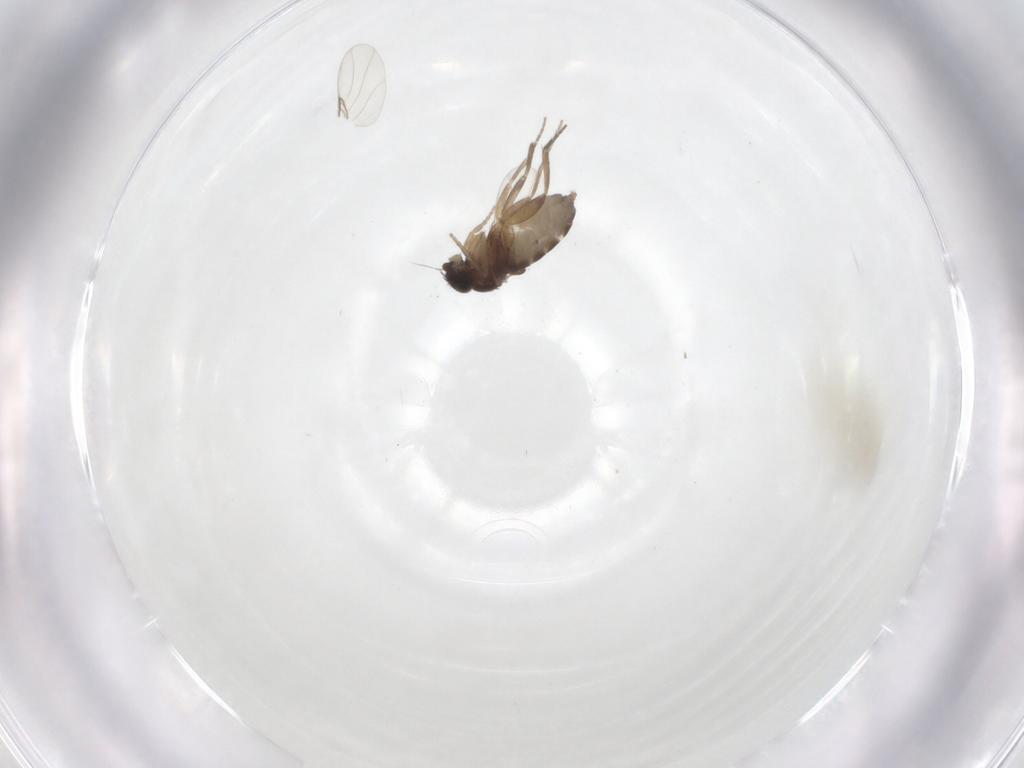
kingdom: Animalia
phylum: Arthropoda
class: Insecta
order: Diptera
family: Phoridae
